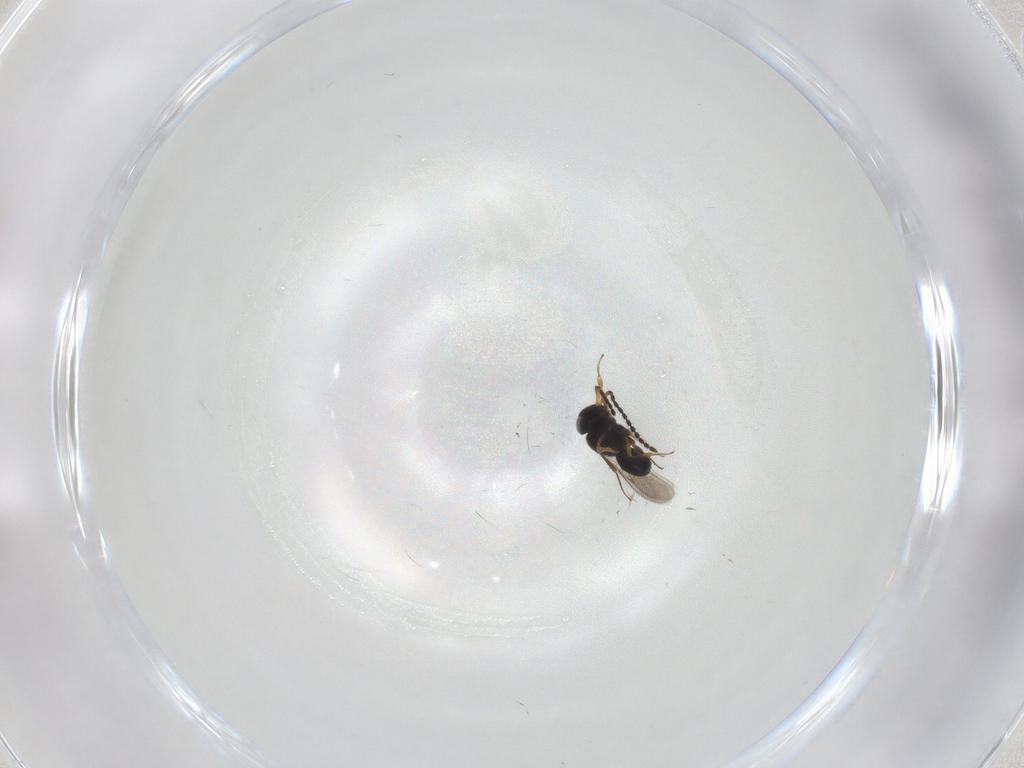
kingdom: Animalia
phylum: Arthropoda
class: Insecta
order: Hymenoptera
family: Scelionidae
